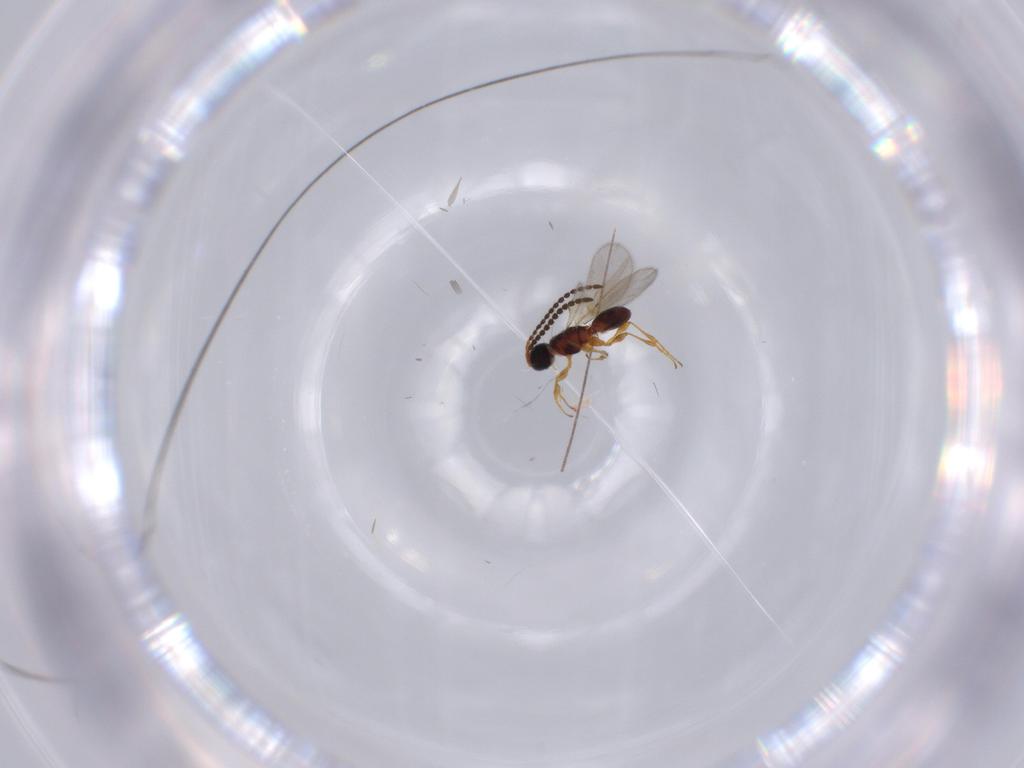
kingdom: Animalia
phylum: Arthropoda
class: Insecta
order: Hymenoptera
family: Diapriidae
